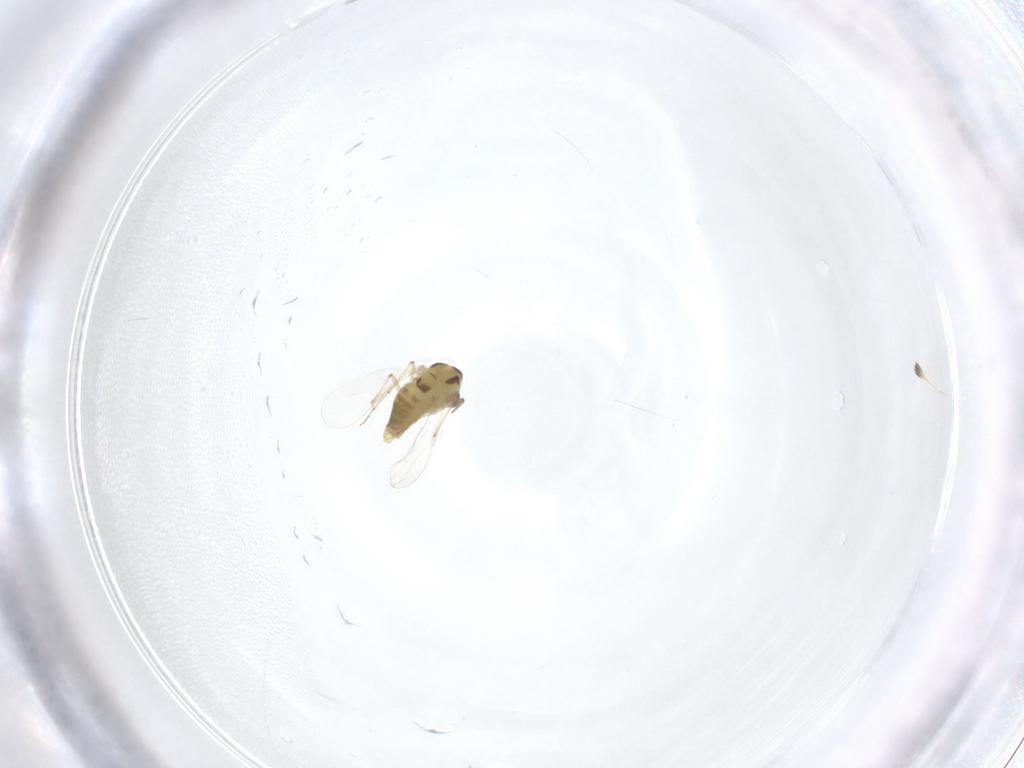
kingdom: Animalia
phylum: Arthropoda
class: Insecta
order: Diptera
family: Chironomidae
